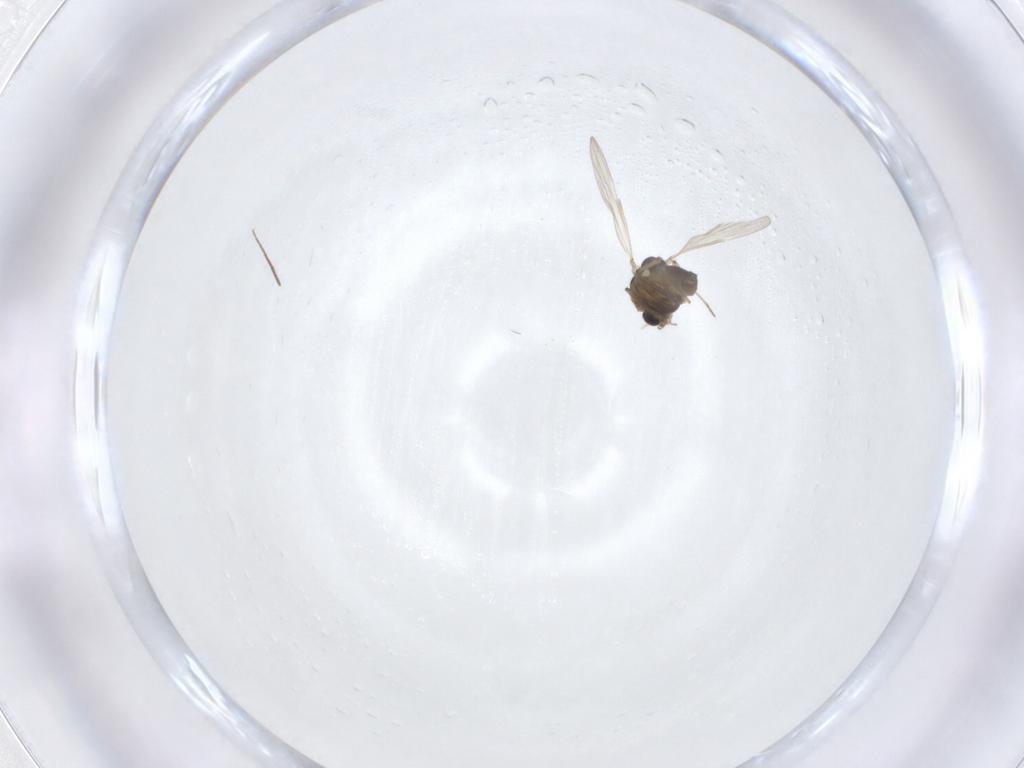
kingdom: Animalia
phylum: Arthropoda
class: Insecta
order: Diptera
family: Chironomidae
